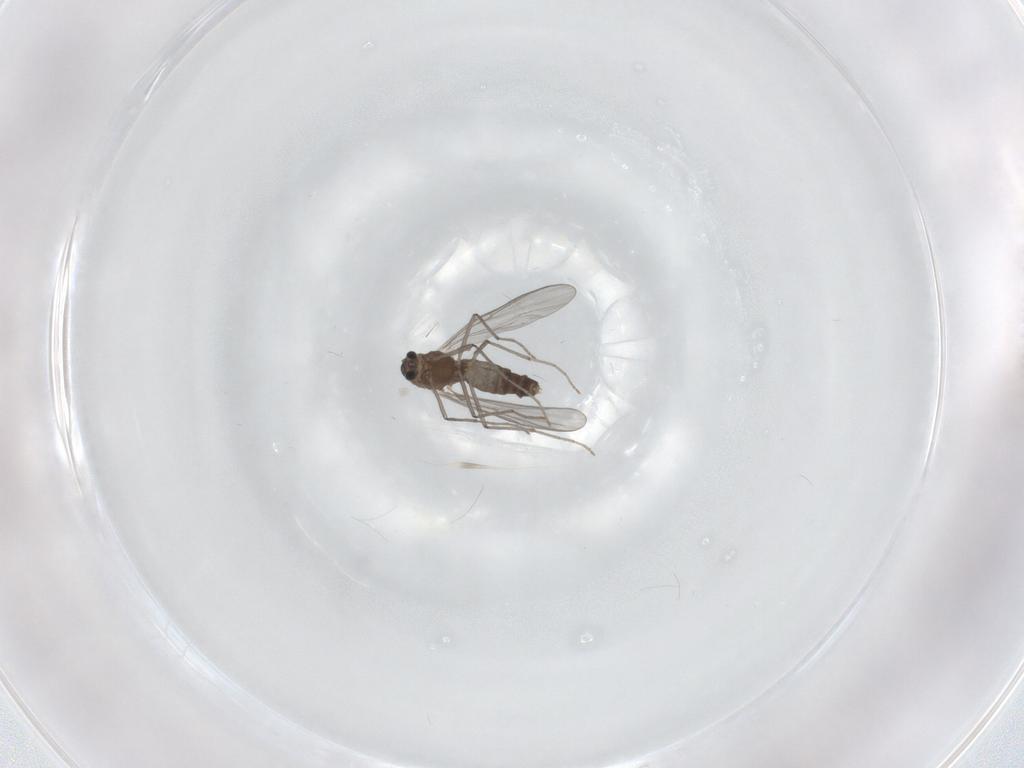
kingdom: Animalia
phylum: Arthropoda
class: Insecta
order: Diptera
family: Chironomidae
